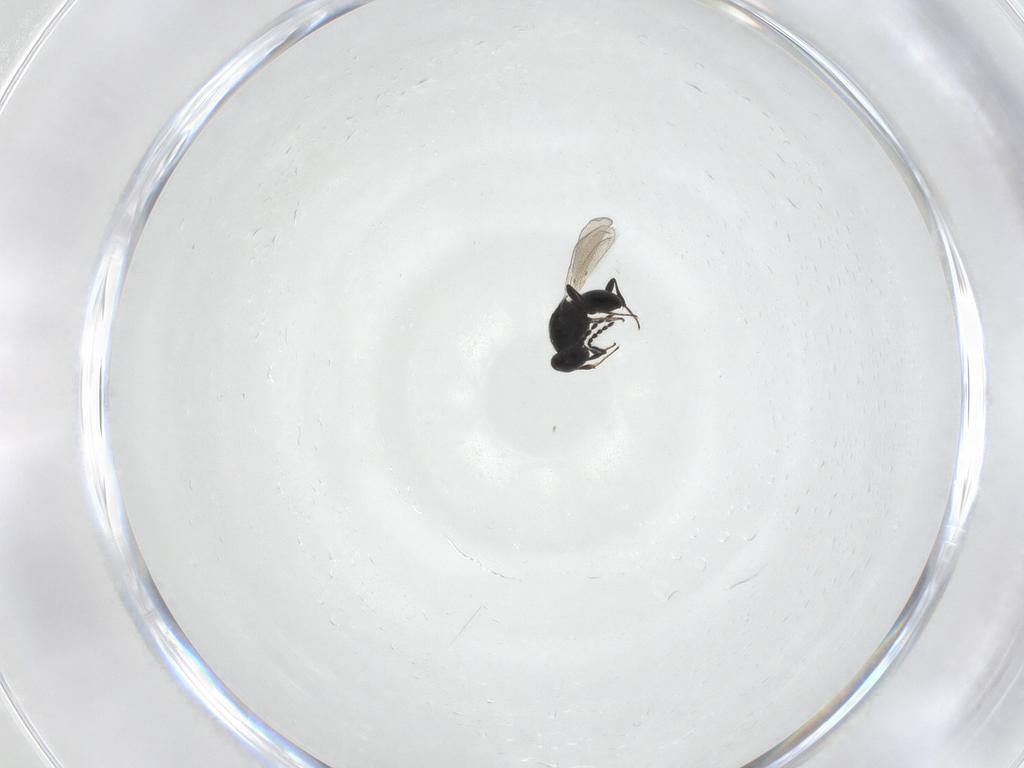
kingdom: Animalia
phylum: Arthropoda
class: Insecta
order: Hymenoptera
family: Platygastridae
